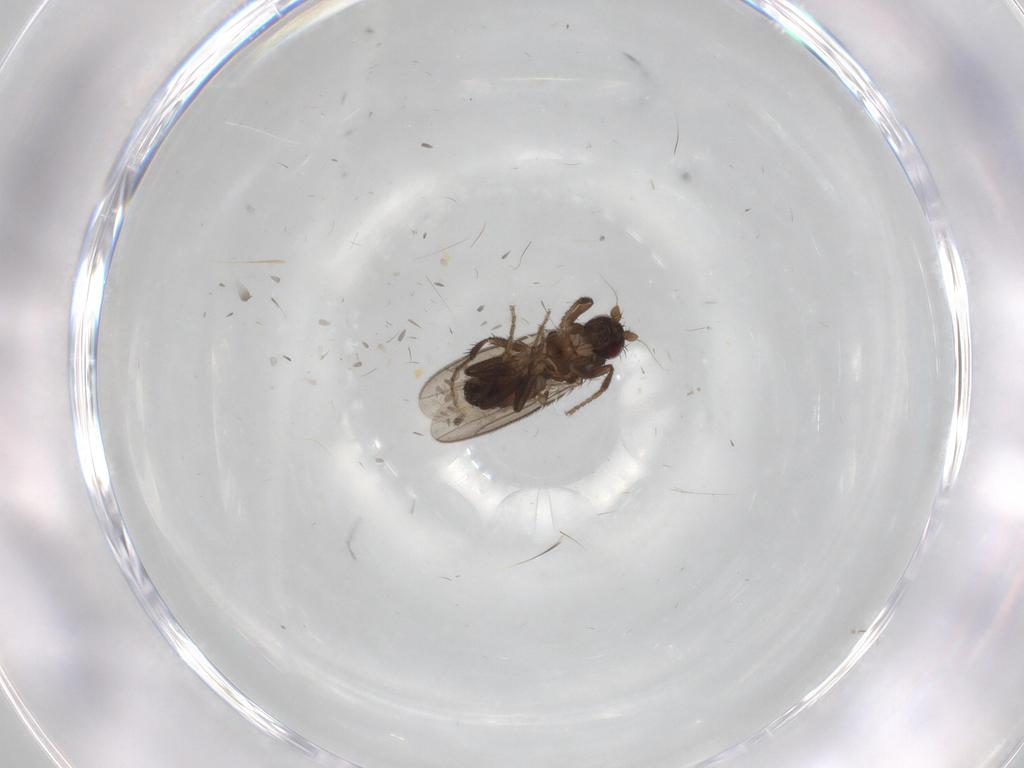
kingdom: Animalia
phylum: Arthropoda
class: Insecta
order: Diptera
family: Sphaeroceridae
